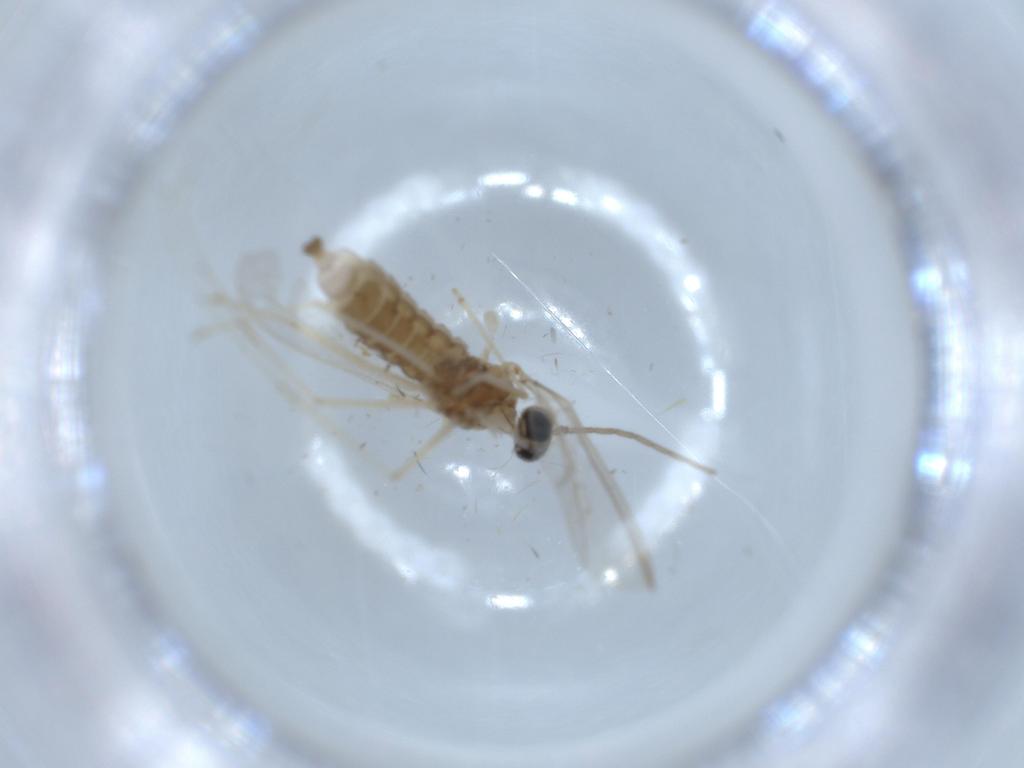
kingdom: Animalia
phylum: Arthropoda
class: Insecta
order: Diptera
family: Cecidomyiidae
